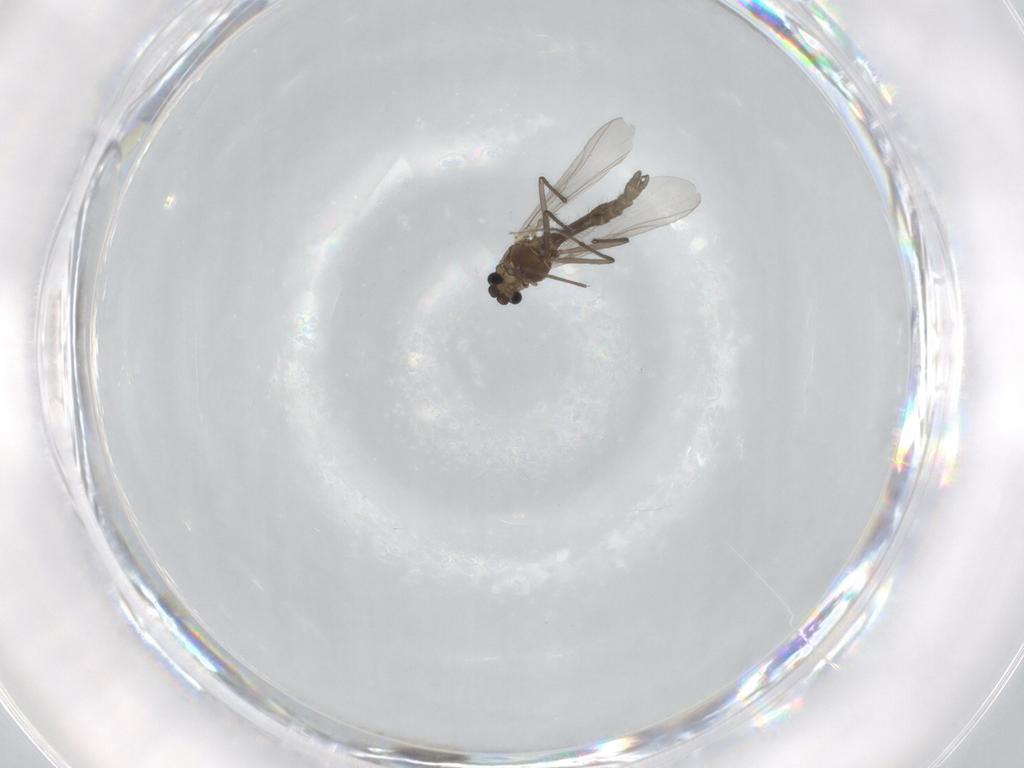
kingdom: Animalia
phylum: Arthropoda
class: Insecta
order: Diptera
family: Chironomidae
